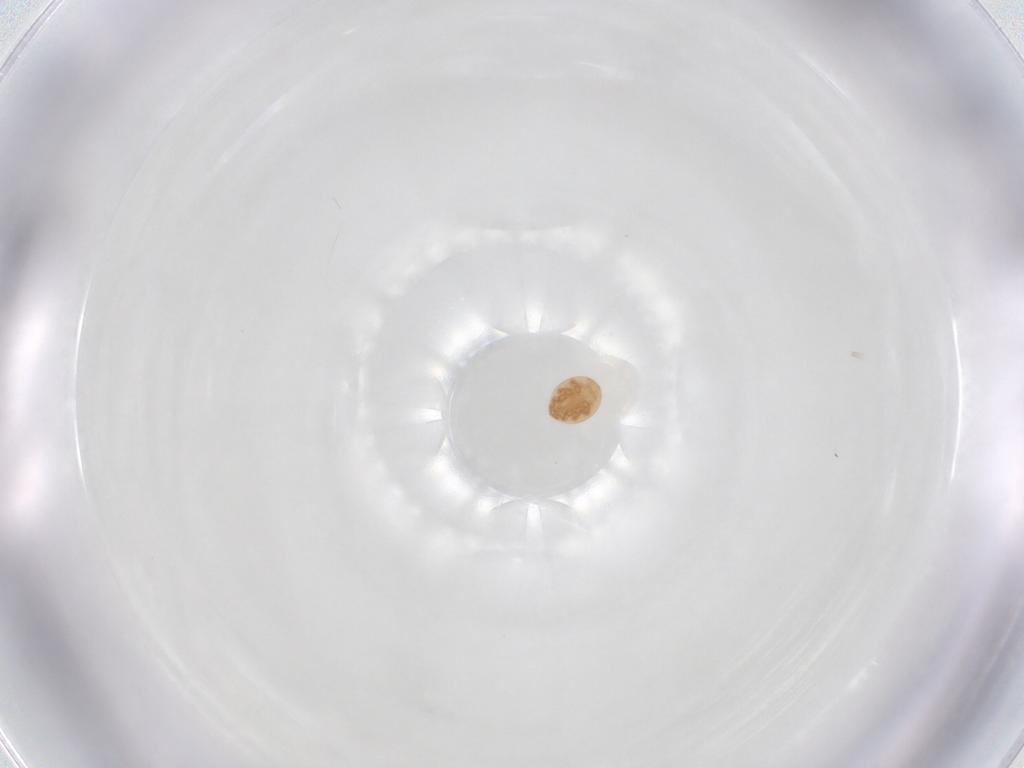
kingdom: Animalia
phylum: Arthropoda
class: Arachnida
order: Mesostigmata
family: Trematuridae
